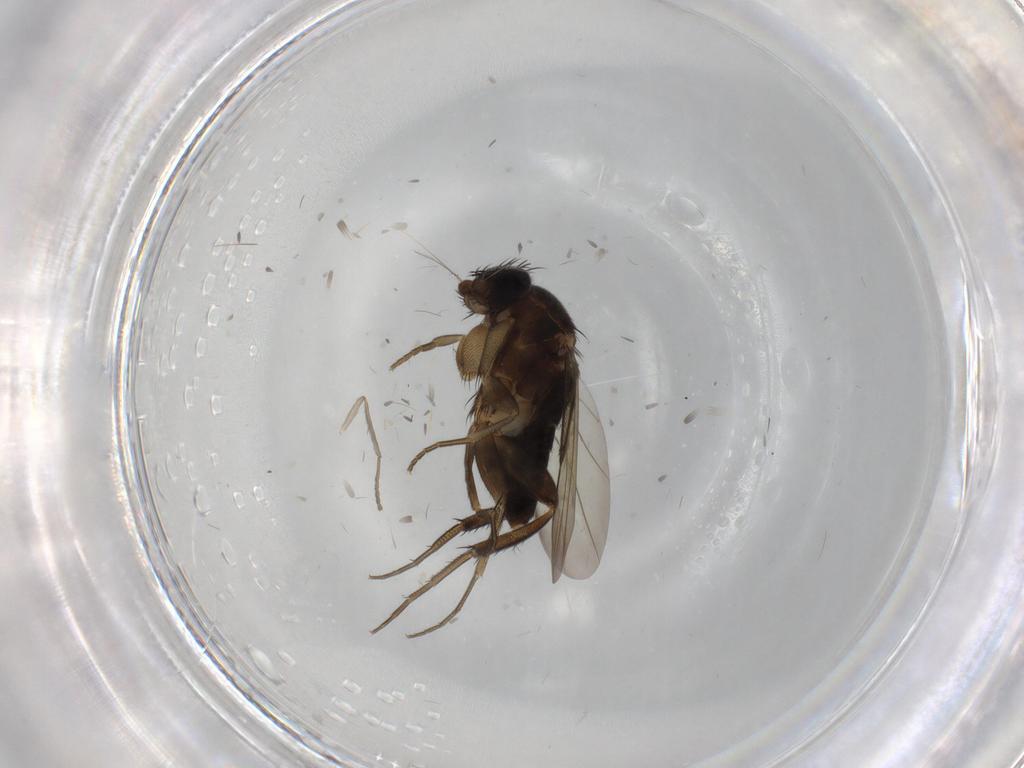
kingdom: Animalia
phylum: Arthropoda
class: Insecta
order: Diptera
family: Phoridae
